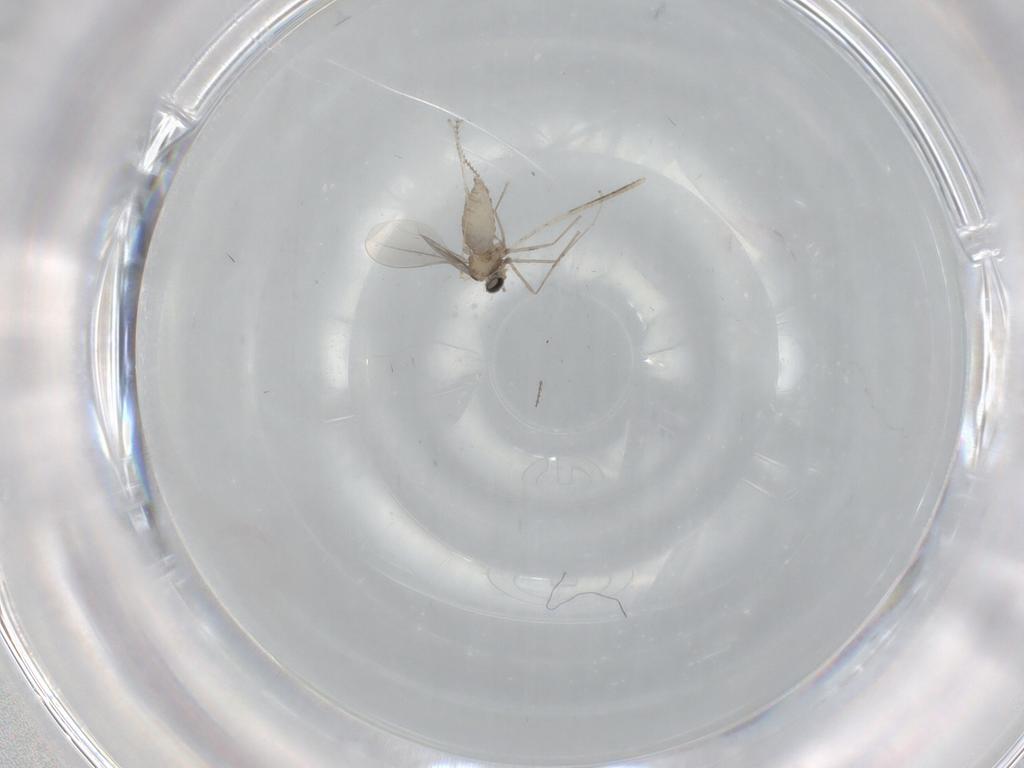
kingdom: Animalia
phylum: Arthropoda
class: Insecta
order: Diptera
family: Cecidomyiidae
